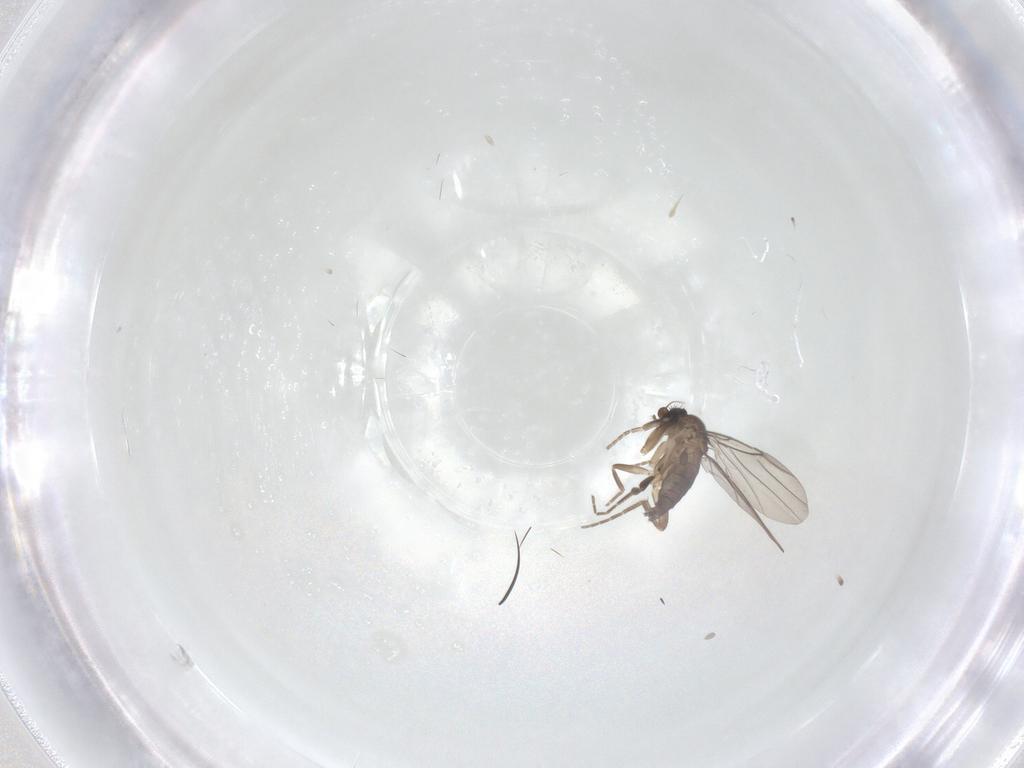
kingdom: Animalia
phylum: Arthropoda
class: Insecta
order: Diptera
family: Phoridae
